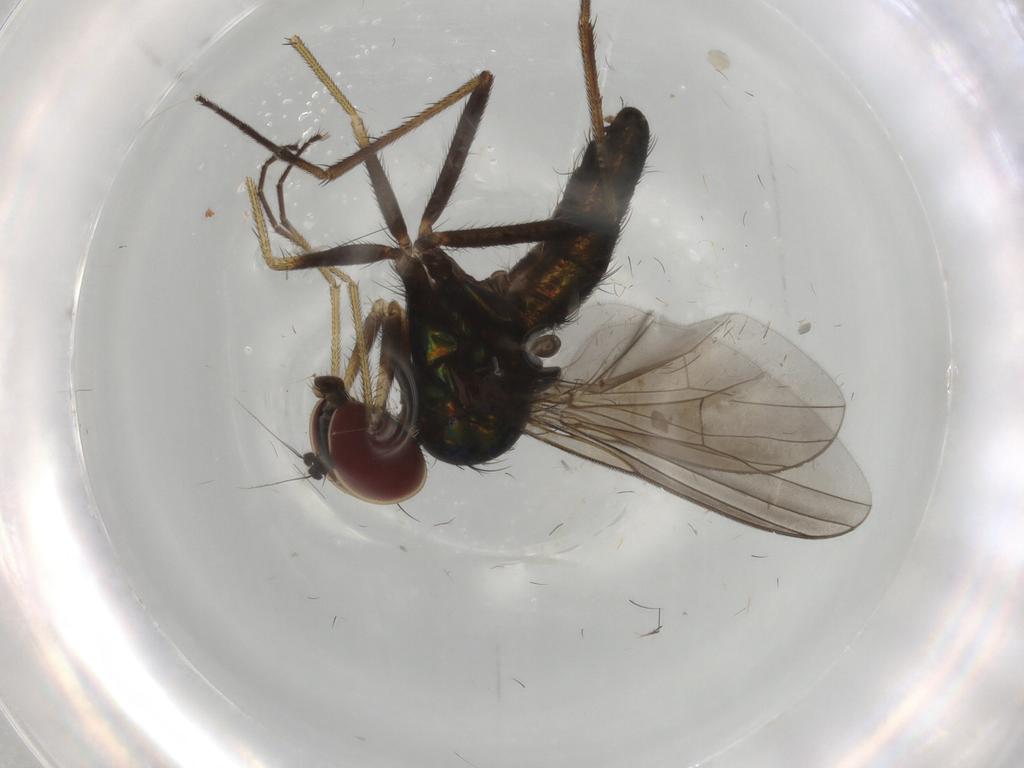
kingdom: Animalia
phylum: Arthropoda
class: Insecta
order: Diptera
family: Dolichopodidae
